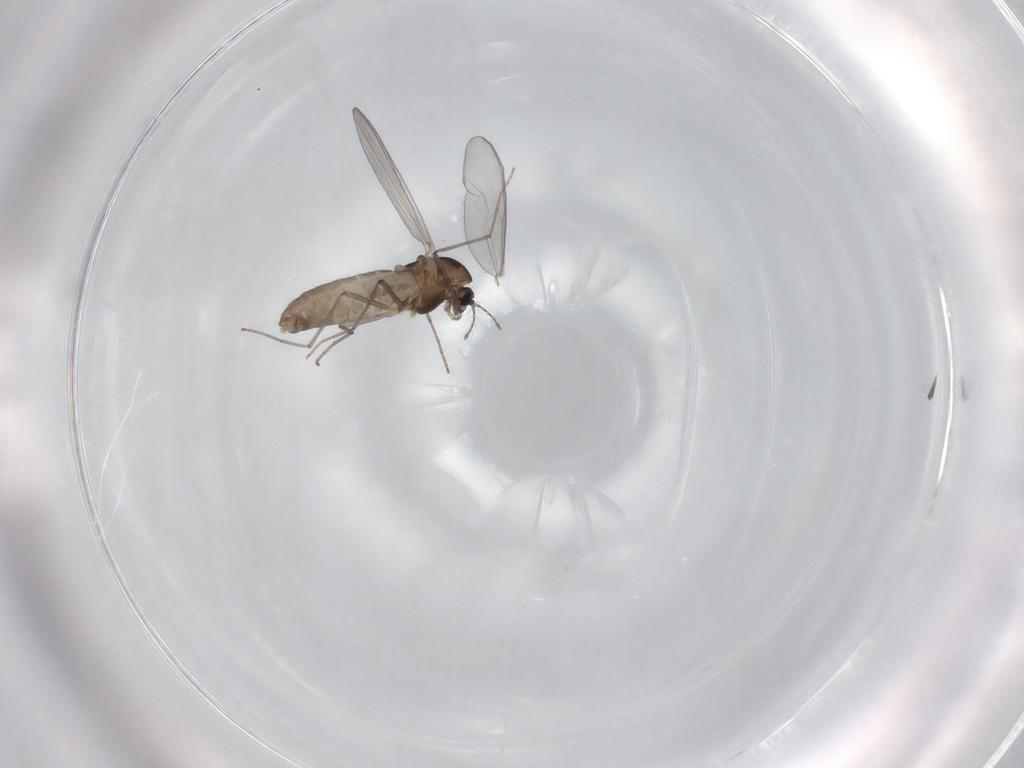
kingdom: Animalia
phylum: Arthropoda
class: Insecta
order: Diptera
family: Chironomidae
